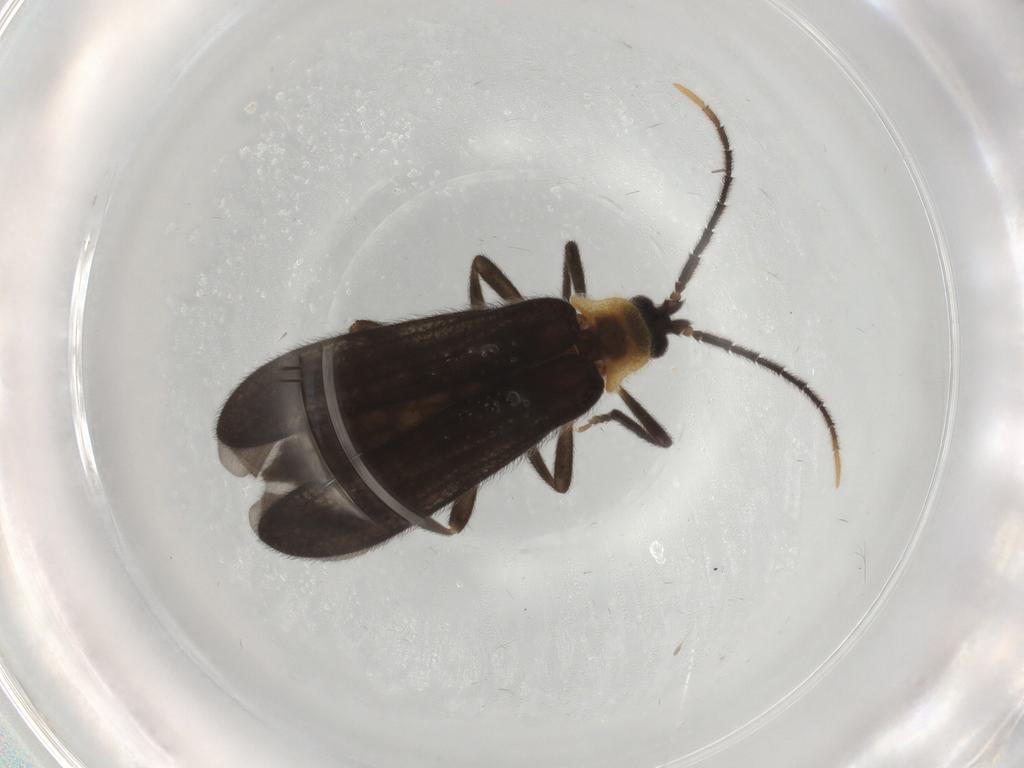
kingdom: Animalia
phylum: Arthropoda
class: Insecta
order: Coleoptera
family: Lycidae
